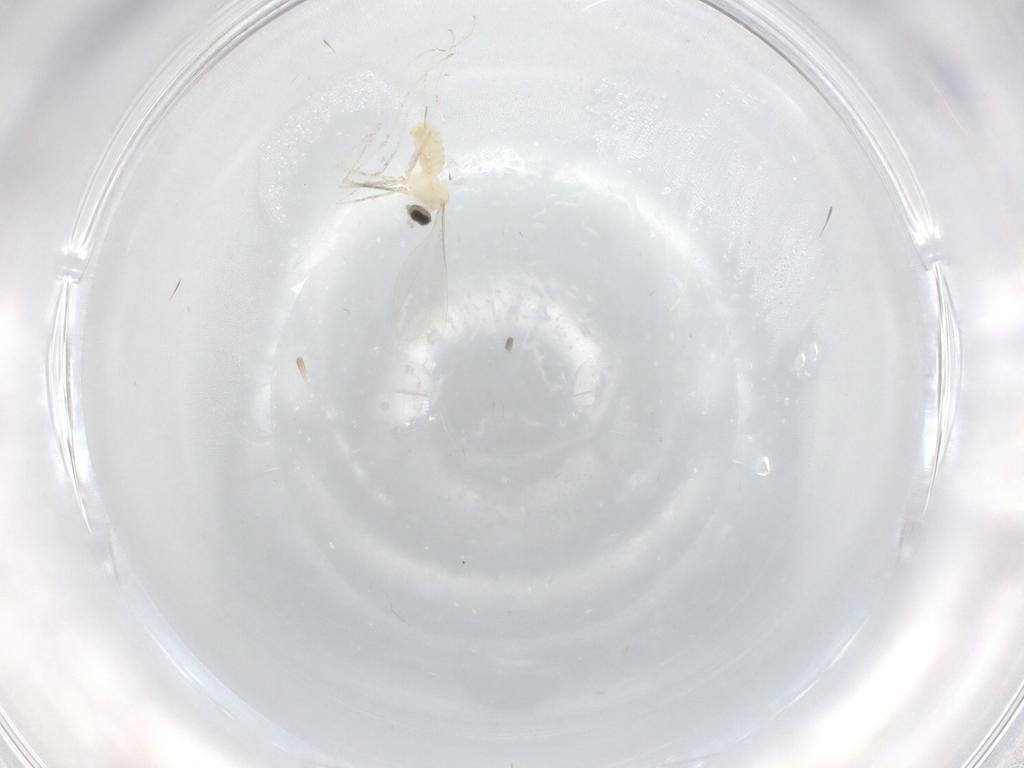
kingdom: Animalia
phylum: Arthropoda
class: Insecta
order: Diptera
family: Cecidomyiidae
